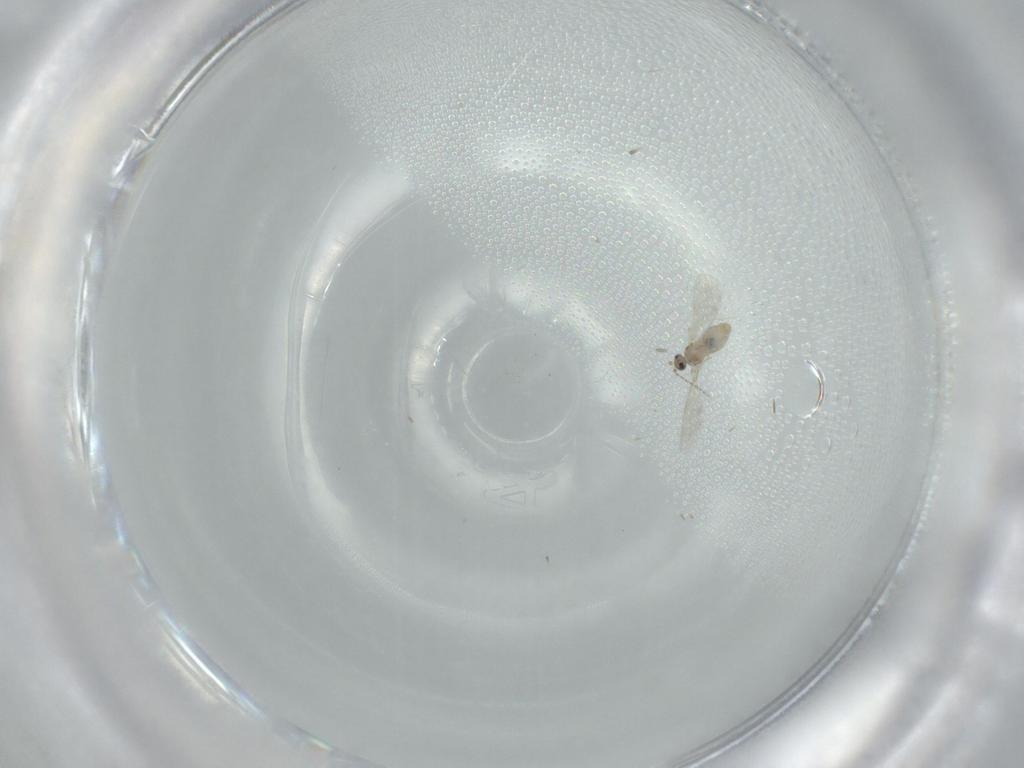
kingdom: Animalia
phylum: Arthropoda
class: Insecta
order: Diptera
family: Cecidomyiidae
